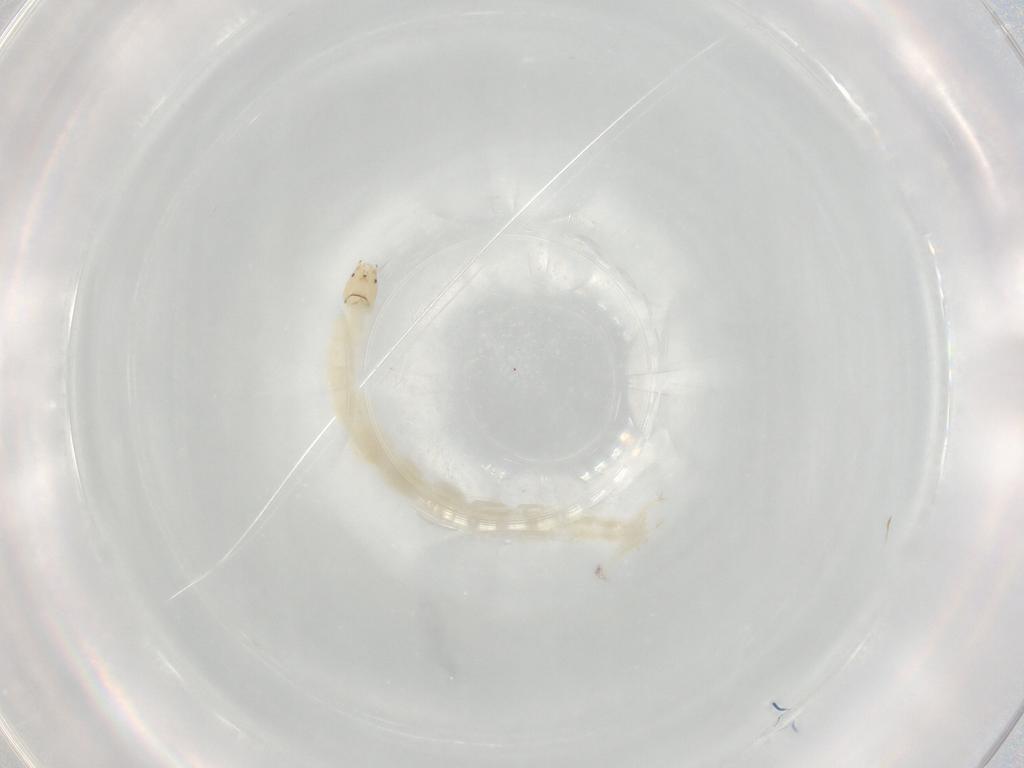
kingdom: Animalia
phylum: Arthropoda
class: Insecta
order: Diptera
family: Chironomidae
